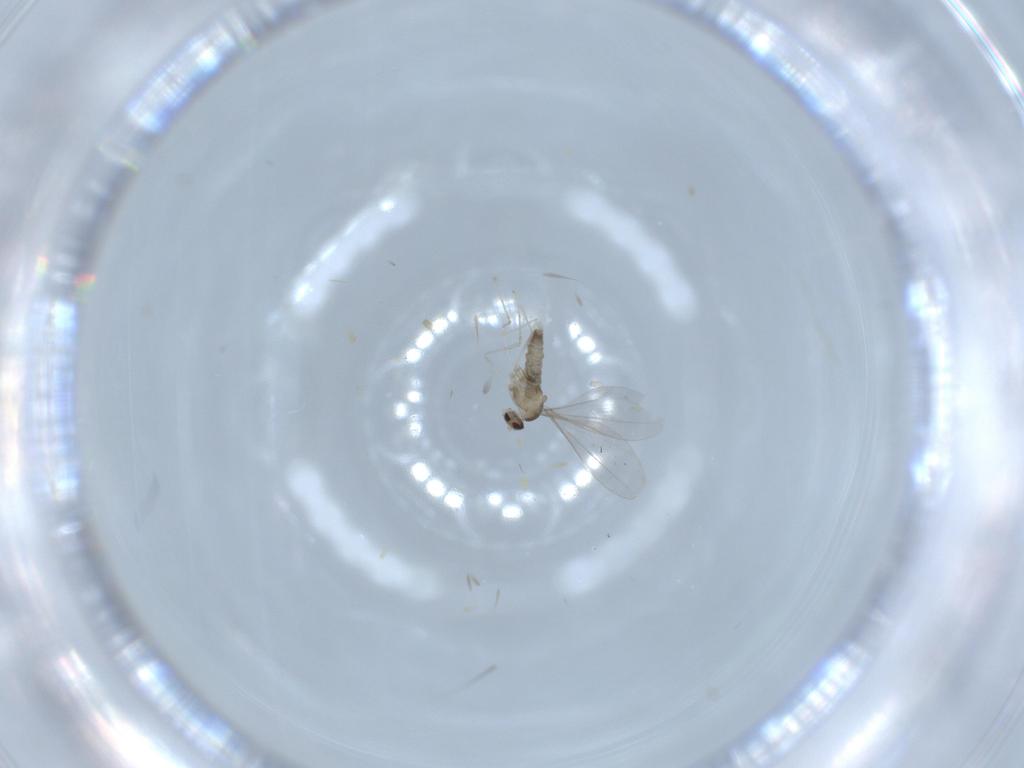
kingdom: Animalia
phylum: Arthropoda
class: Insecta
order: Diptera
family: Cecidomyiidae
